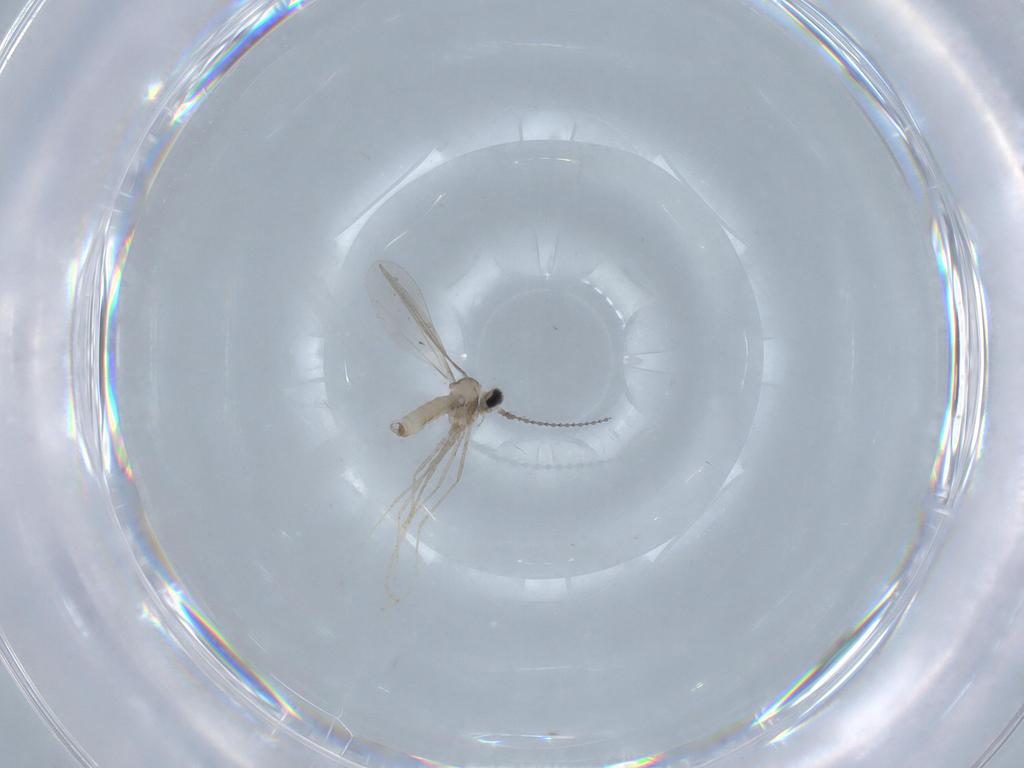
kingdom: Animalia
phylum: Arthropoda
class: Insecta
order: Diptera
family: Cecidomyiidae
